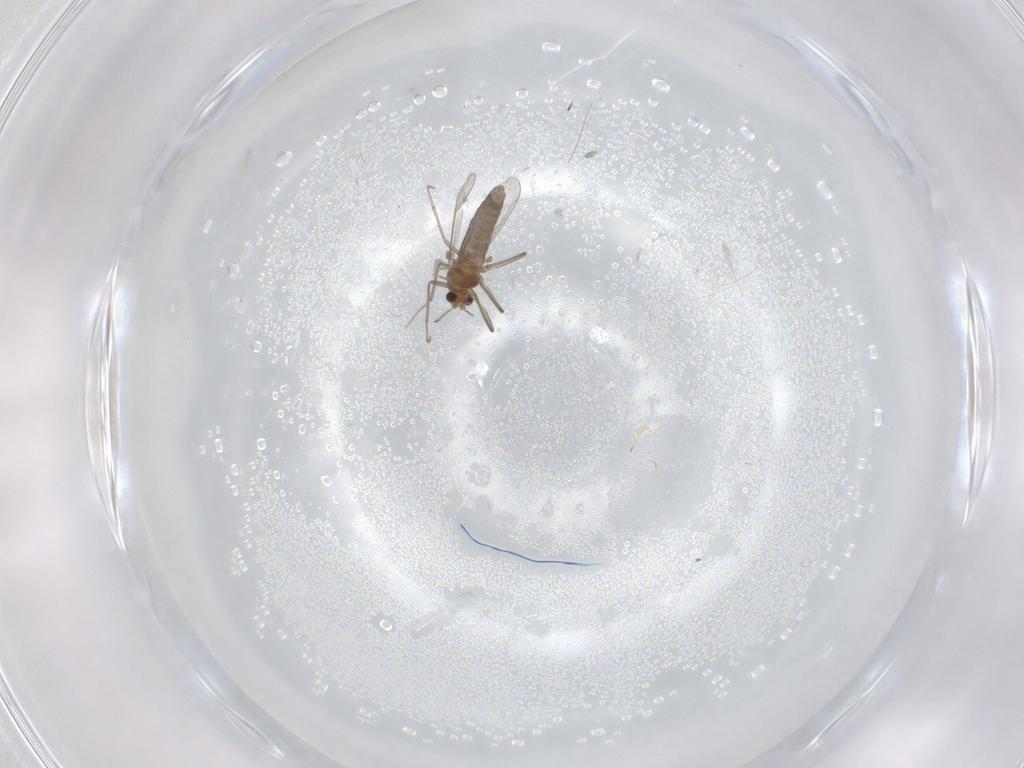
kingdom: Animalia
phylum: Arthropoda
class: Insecta
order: Diptera
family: Chironomidae
